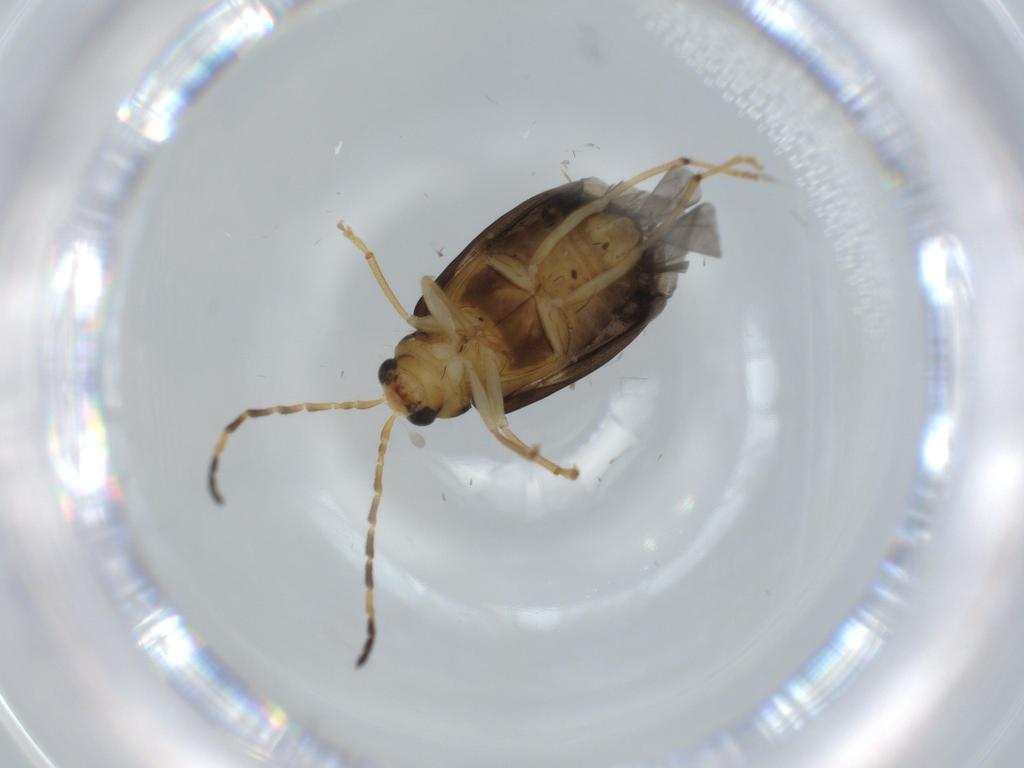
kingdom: Animalia
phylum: Arthropoda
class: Insecta
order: Coleoptera
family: Chrysomelidae
